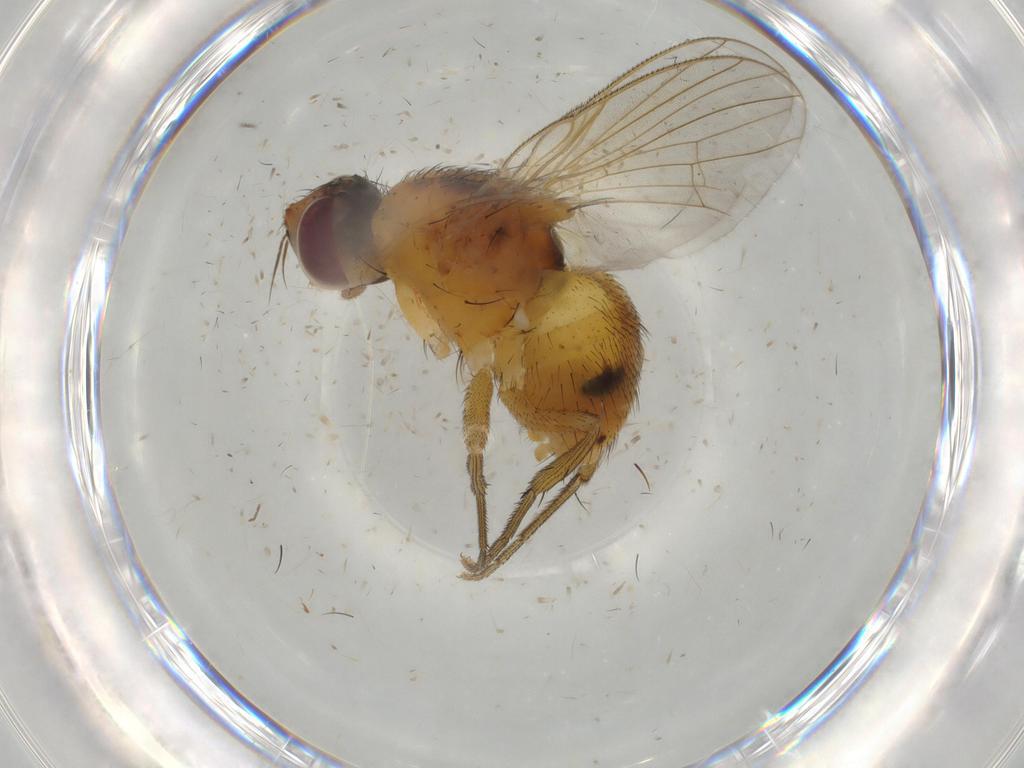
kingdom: Animalia
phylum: Arthropoda
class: Insecta
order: Diptera
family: Muscidae
